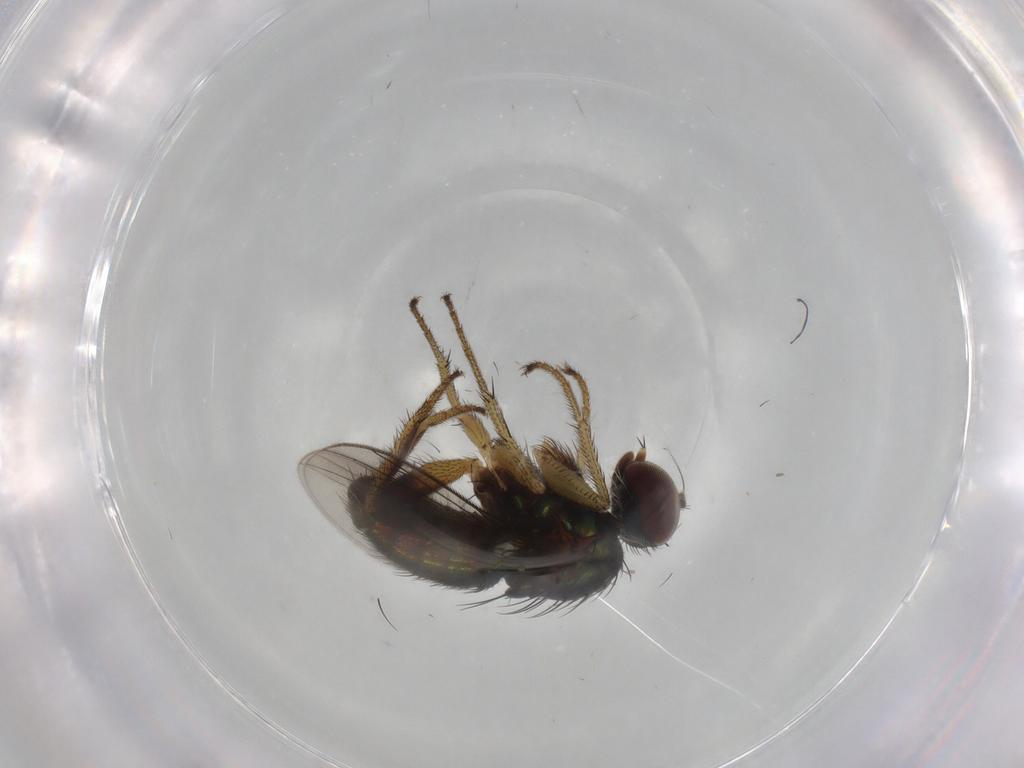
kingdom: Animalia
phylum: Arthropoda
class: Insecta
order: Diptera
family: Dolichopodidae
